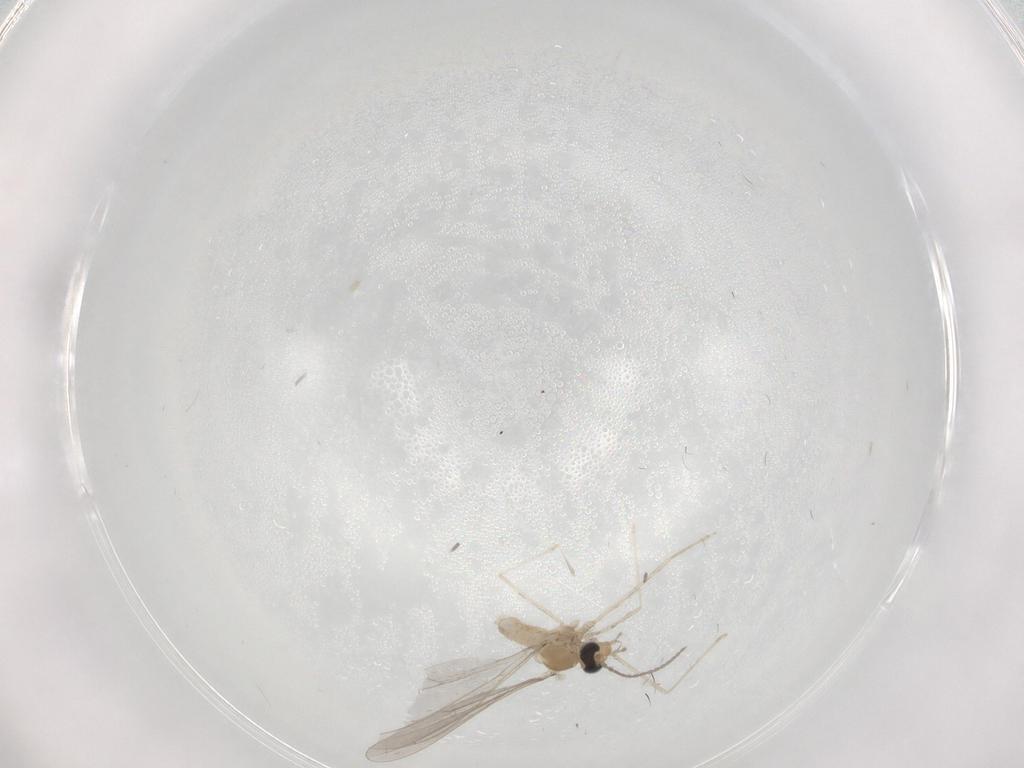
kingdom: Animalia
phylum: Arthropoda
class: Insecta
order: Diptera
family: Cecidomyiidae
